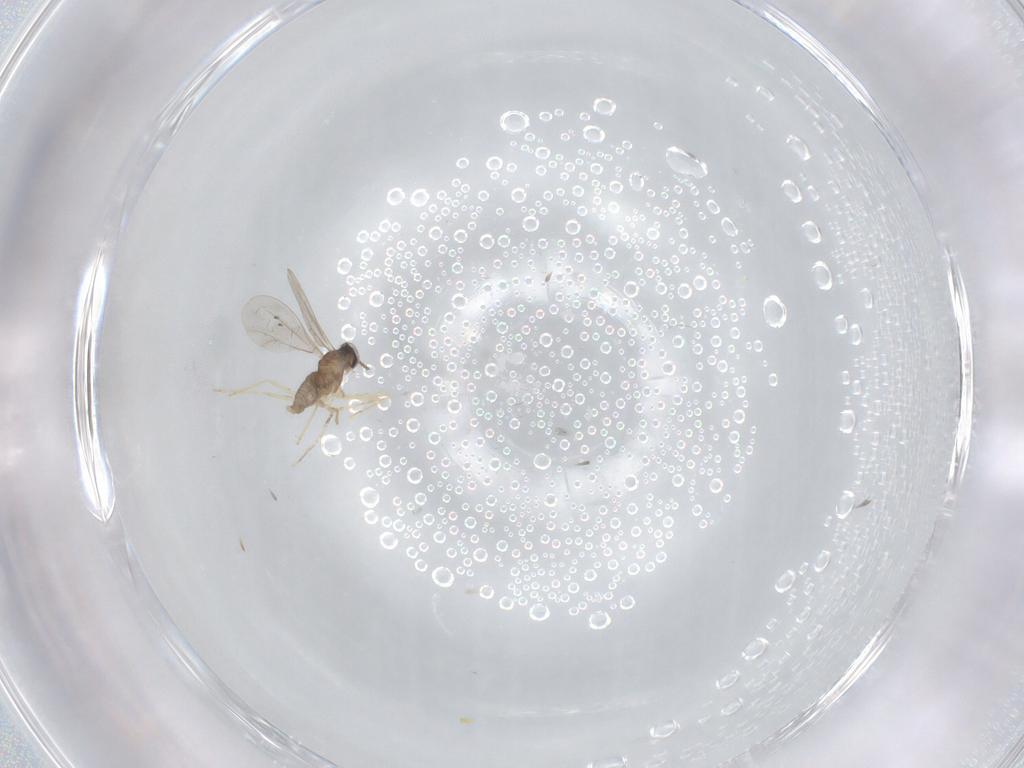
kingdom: Animalia
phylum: Arthropoda
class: Insecta
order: Diptera
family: Cecidomyiidae
